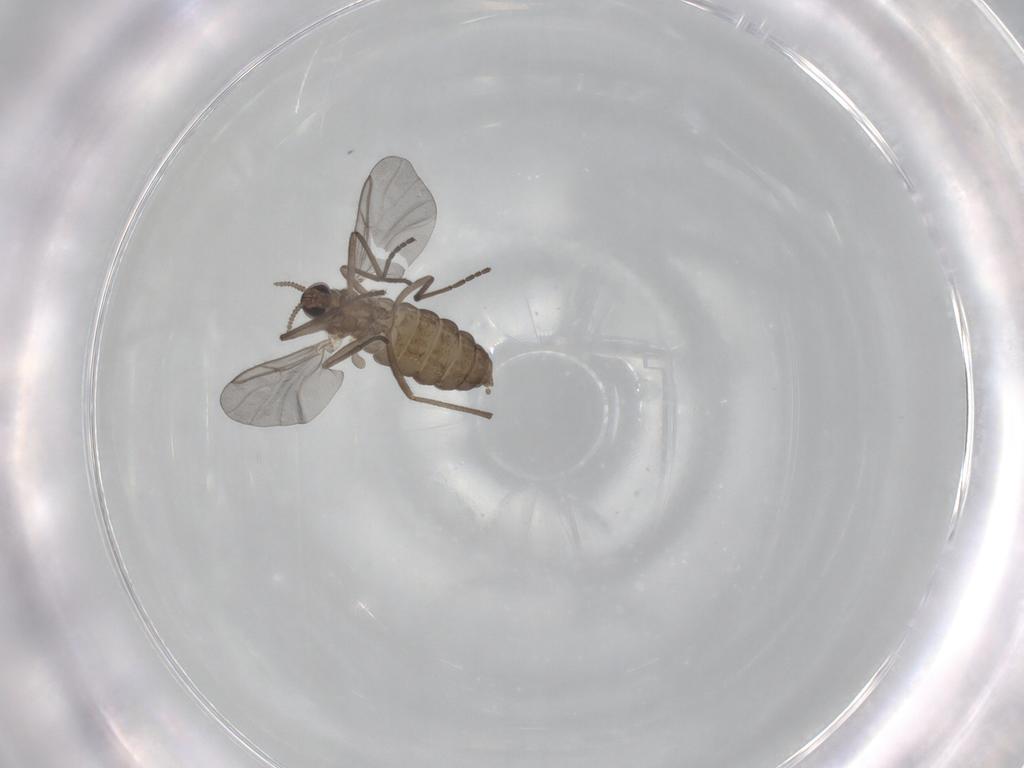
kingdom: Animalia
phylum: Arthropoda
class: Insecta
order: Diptera
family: Cecidomyiidae
